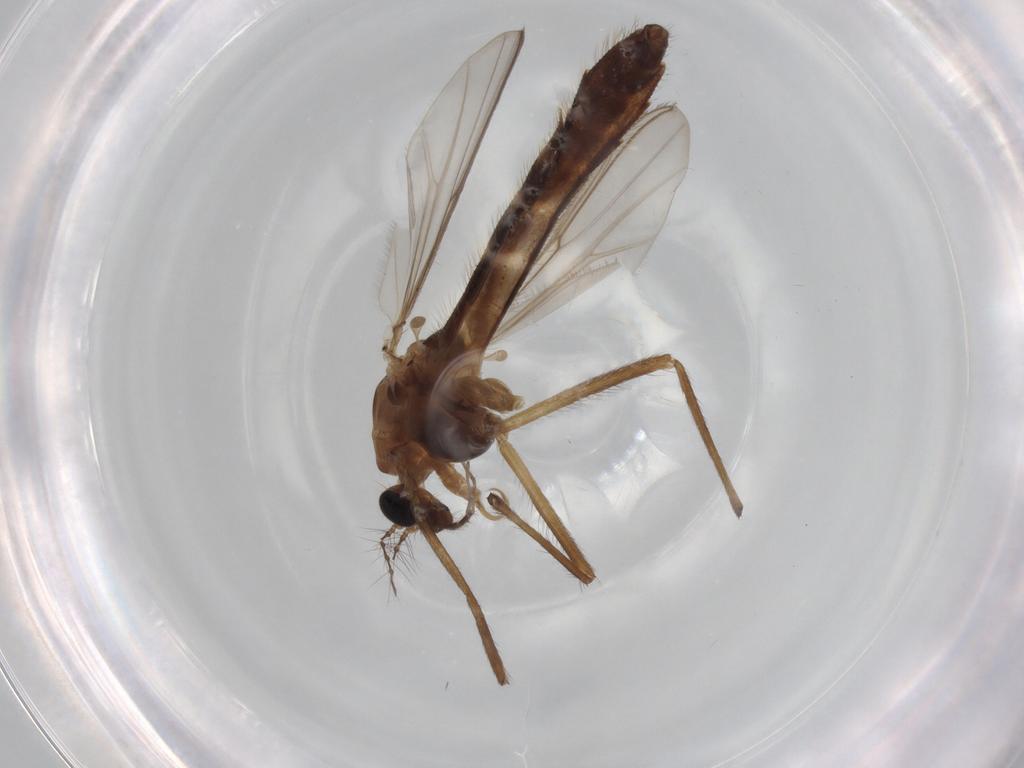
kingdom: Animalia
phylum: Arthropoda
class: Insecta
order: Diptera
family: Chironomidae
